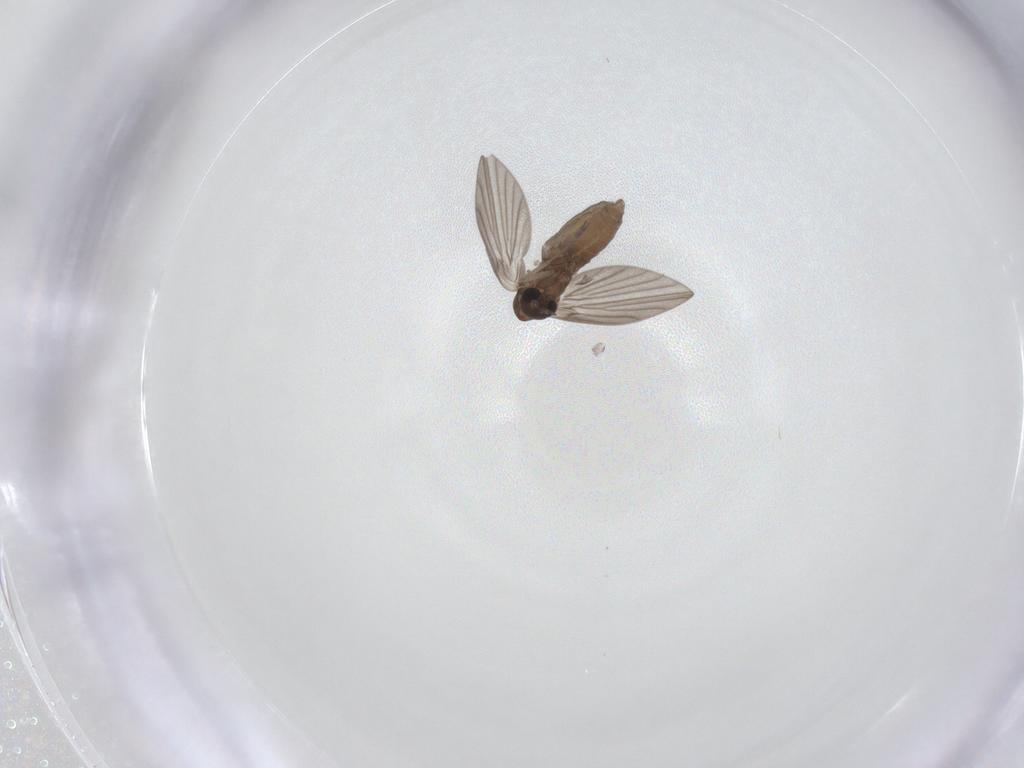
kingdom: Animalia
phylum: Arthropoda
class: Insecta
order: Diptera
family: Psychodidae
